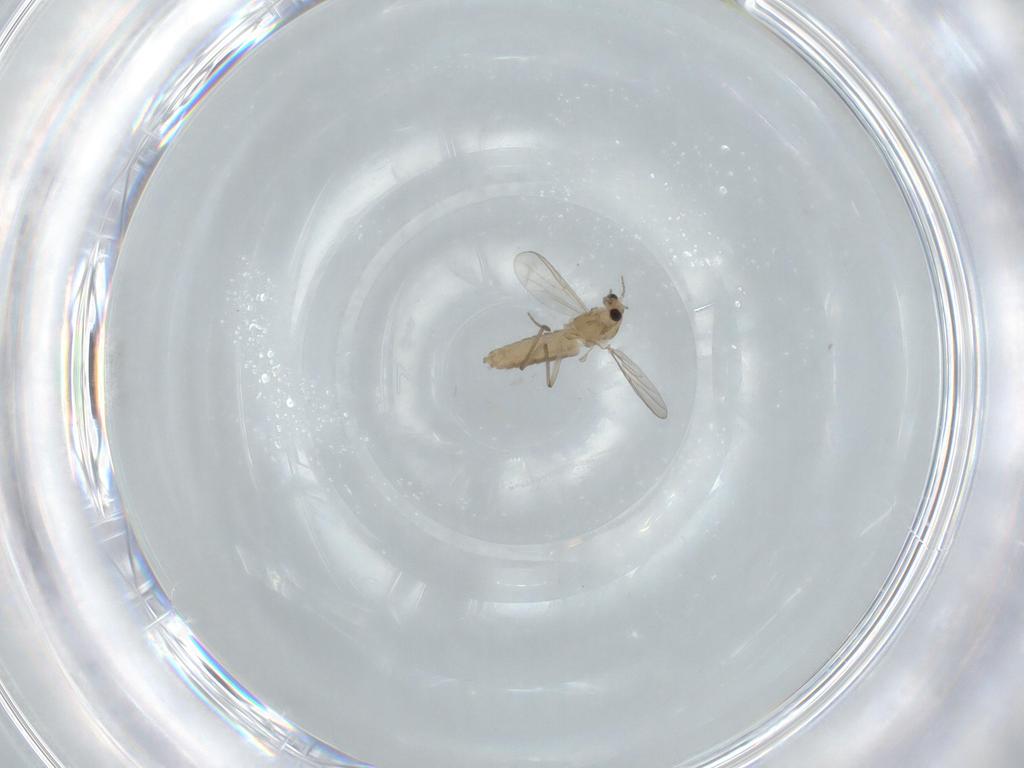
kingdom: Animalia
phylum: Arthropoda
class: Insecta
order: Diptera
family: Chironomidae
